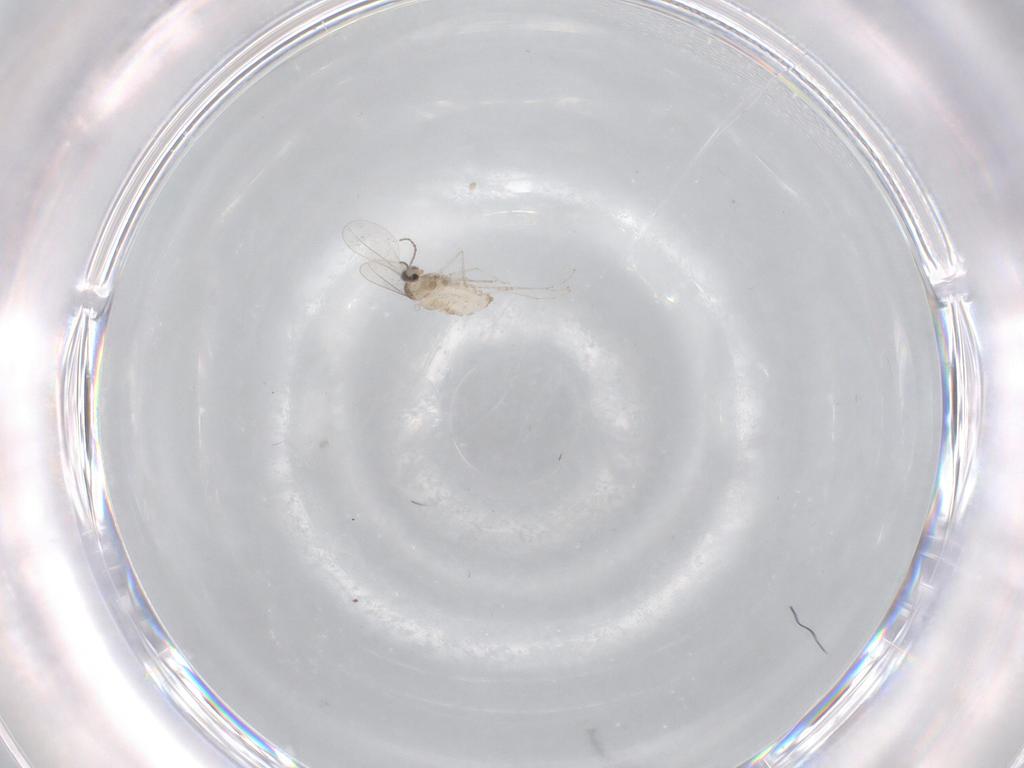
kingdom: Animalia
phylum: Arthropoda
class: Insecta
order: Diptera
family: Cecidomyiidae
